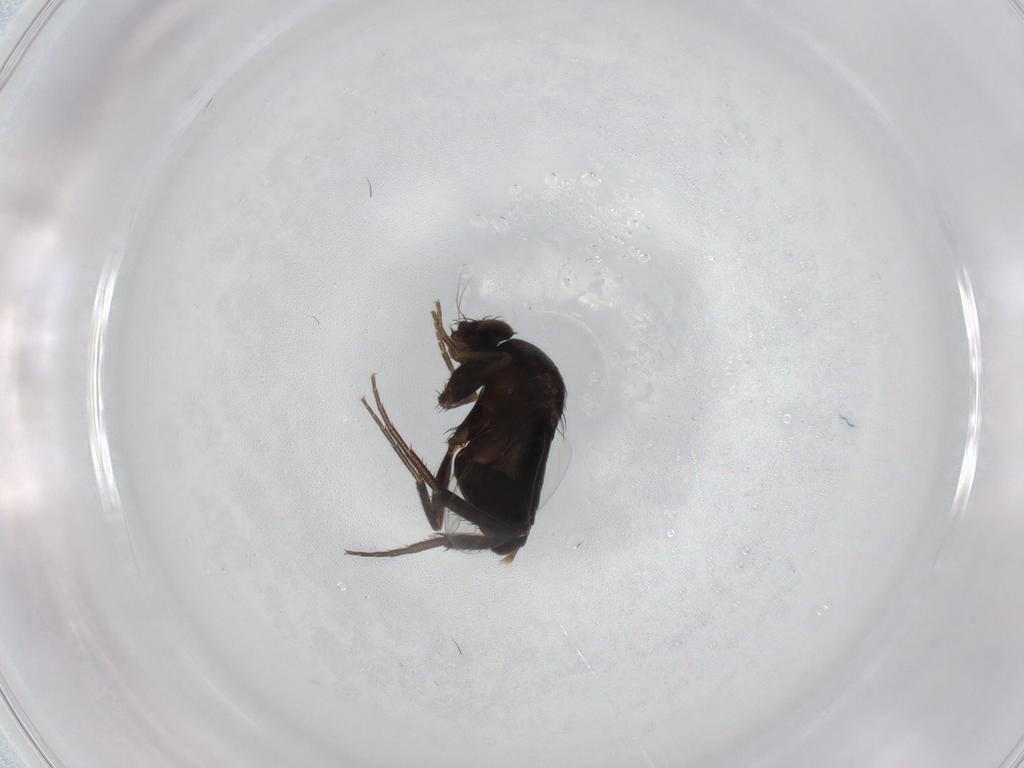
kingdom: Animalia
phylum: Arthropoda
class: Insecta
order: Diptera
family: Phoridae
